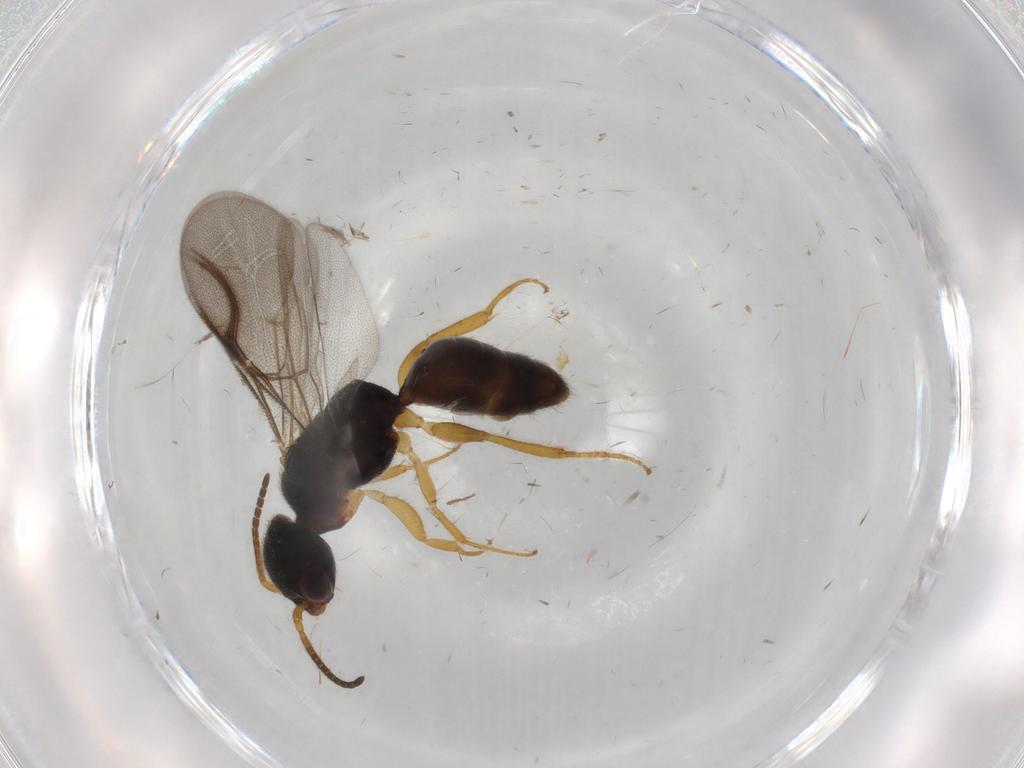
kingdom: Animalia
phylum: Arthropoda
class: Insecta
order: Hymenoptera
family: Bethylidae
